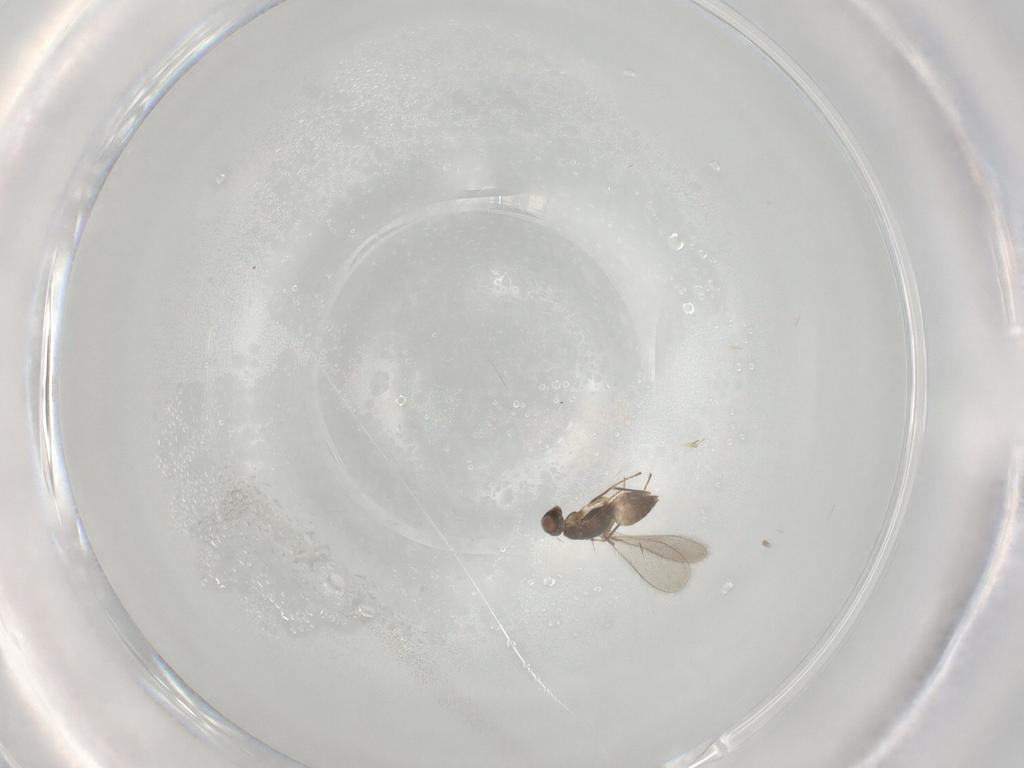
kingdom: Animalia
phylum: Arthropoda
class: Insecta
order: Hymenoptera
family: Mymaridae
